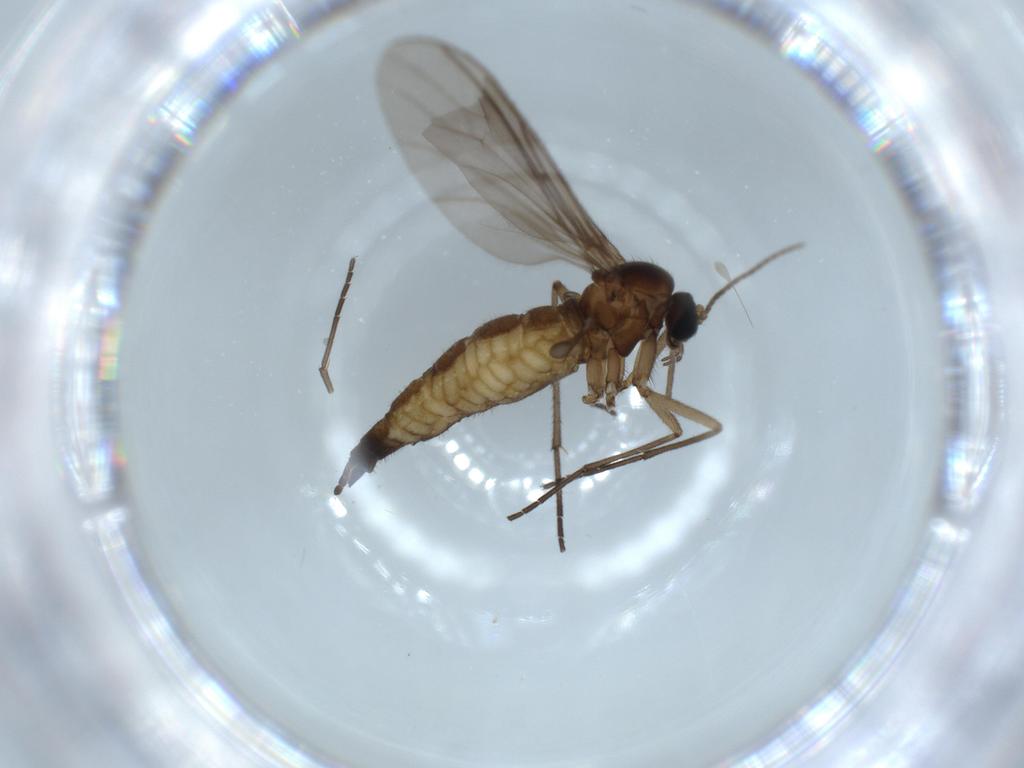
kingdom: Animalia
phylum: Arthropoda
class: Insecta
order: Diptera
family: Sciaridae
